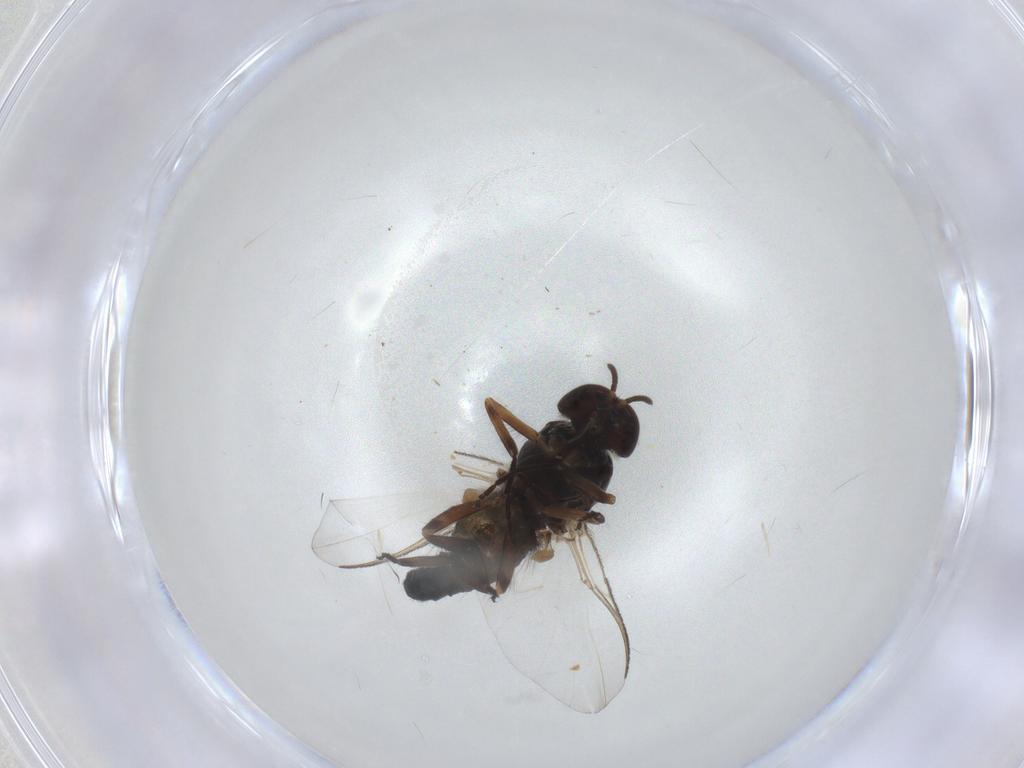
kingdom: Animalia
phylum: Arthropoda
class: Insecta
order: Diptera
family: Cecidomyiidae
